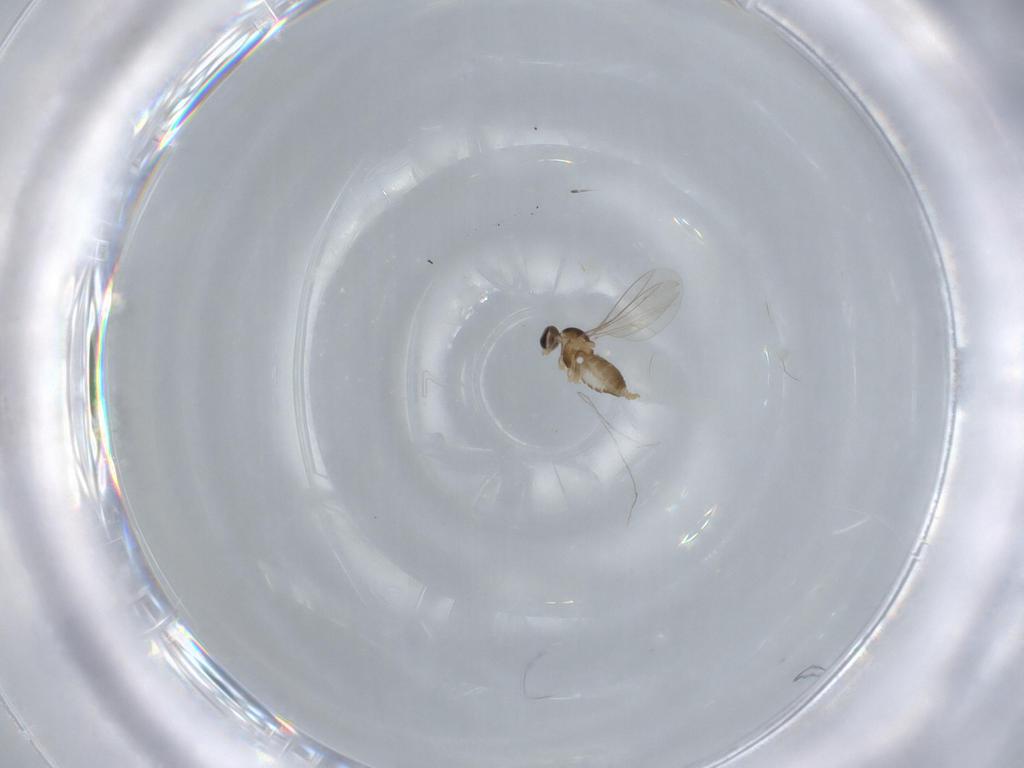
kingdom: Animalia
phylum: Arthropoda
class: Insecta
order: Diptera
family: Cecidomyiidae
